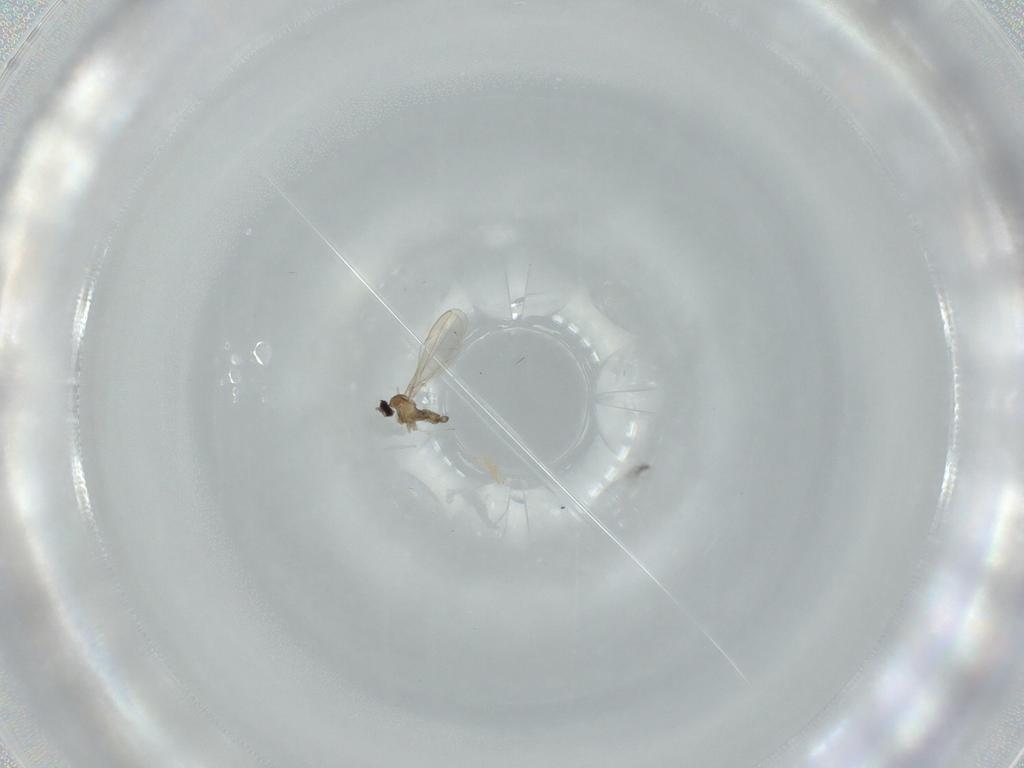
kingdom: Animalia
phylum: Arthropoda
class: Insecta
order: Diptera
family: Cecidomyiidae
